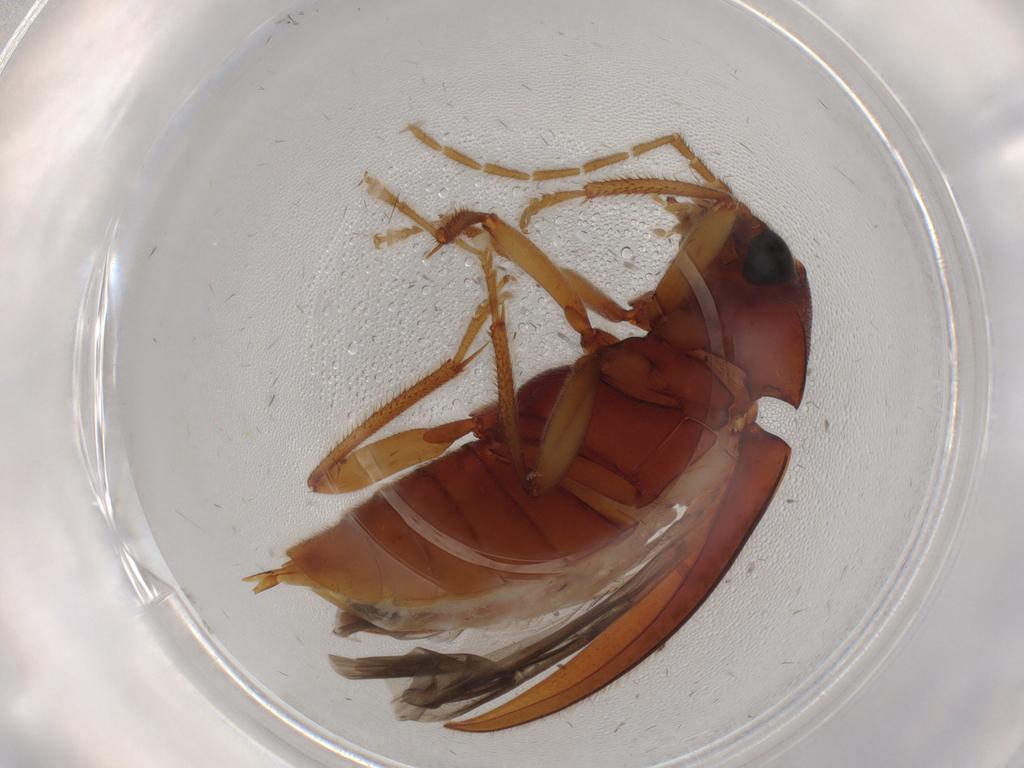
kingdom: Animalia
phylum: Arthropoda
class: Insecta
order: Coleoptera
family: Ptilodactylidae
